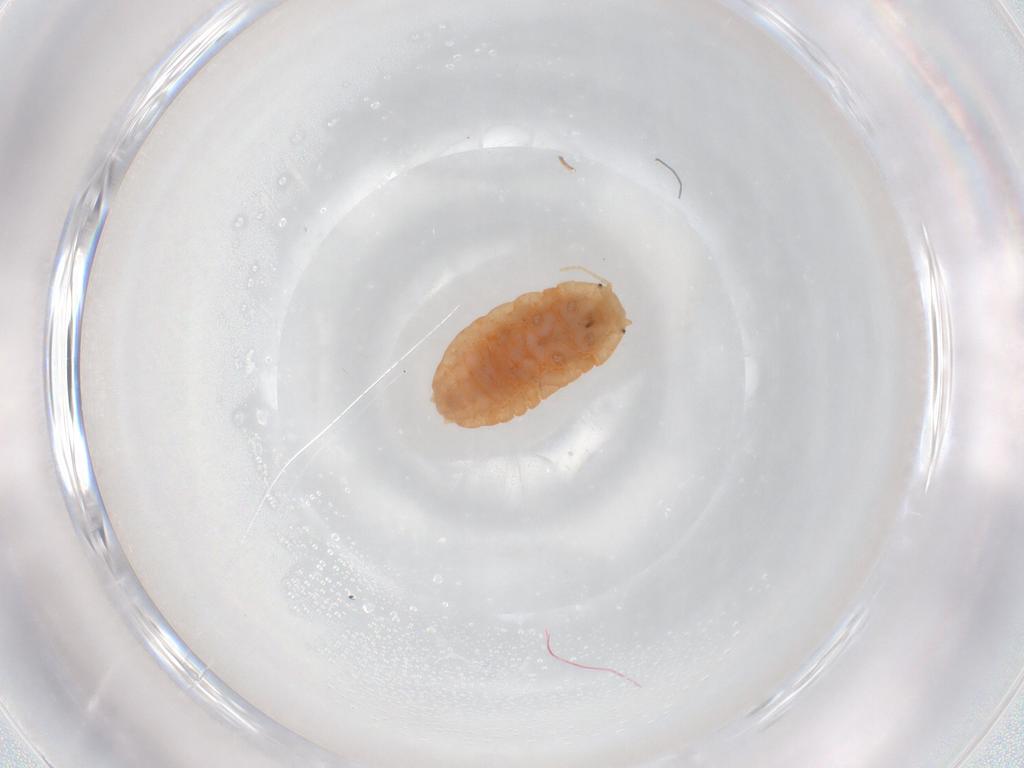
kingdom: Animalia
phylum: Arthropoda
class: Insecta
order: Hemiptera
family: Cicadellidae
